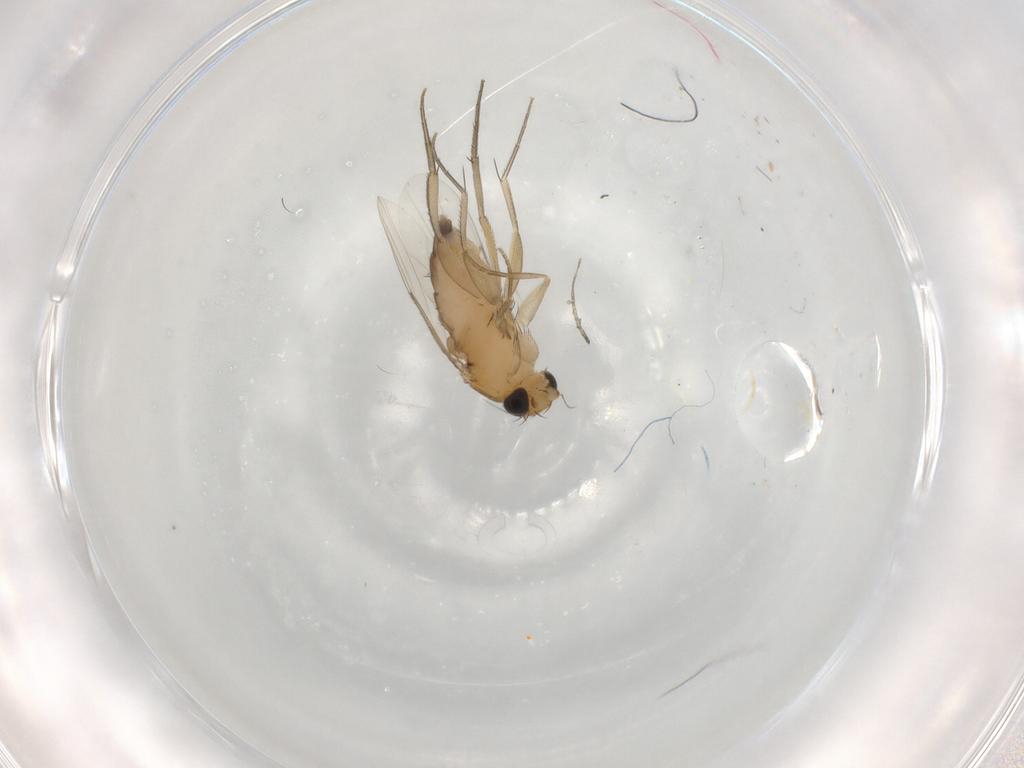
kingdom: Animalia
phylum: Arthropoda
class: Insecta
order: Diptera
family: Phoridae
